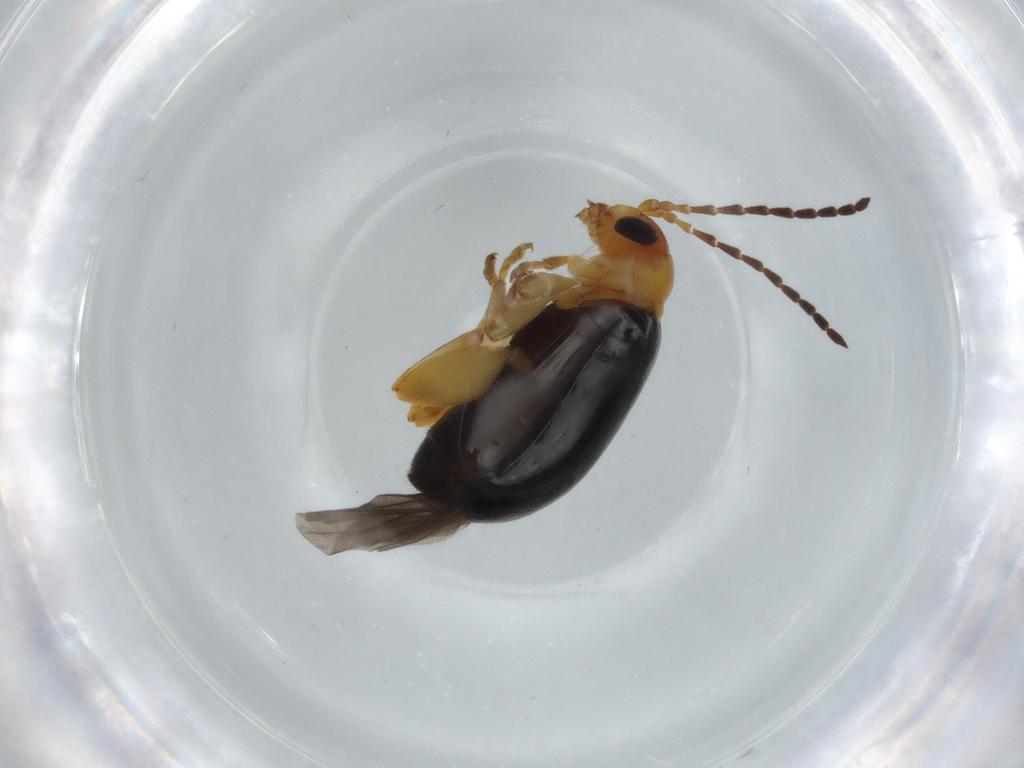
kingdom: Animalia
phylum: Arthropoda
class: Insecta
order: Coleoptera
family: Chrysomelidae
